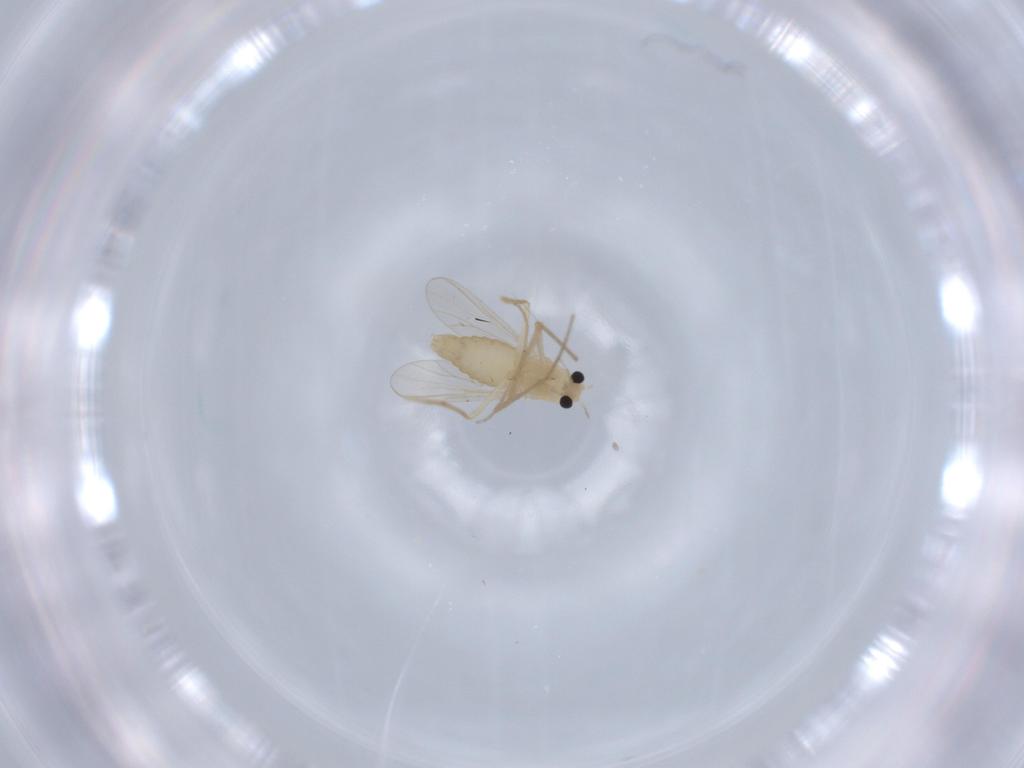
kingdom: Animalia
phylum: Arthropoda
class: Insecta
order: Diptera
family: Chironomidae
